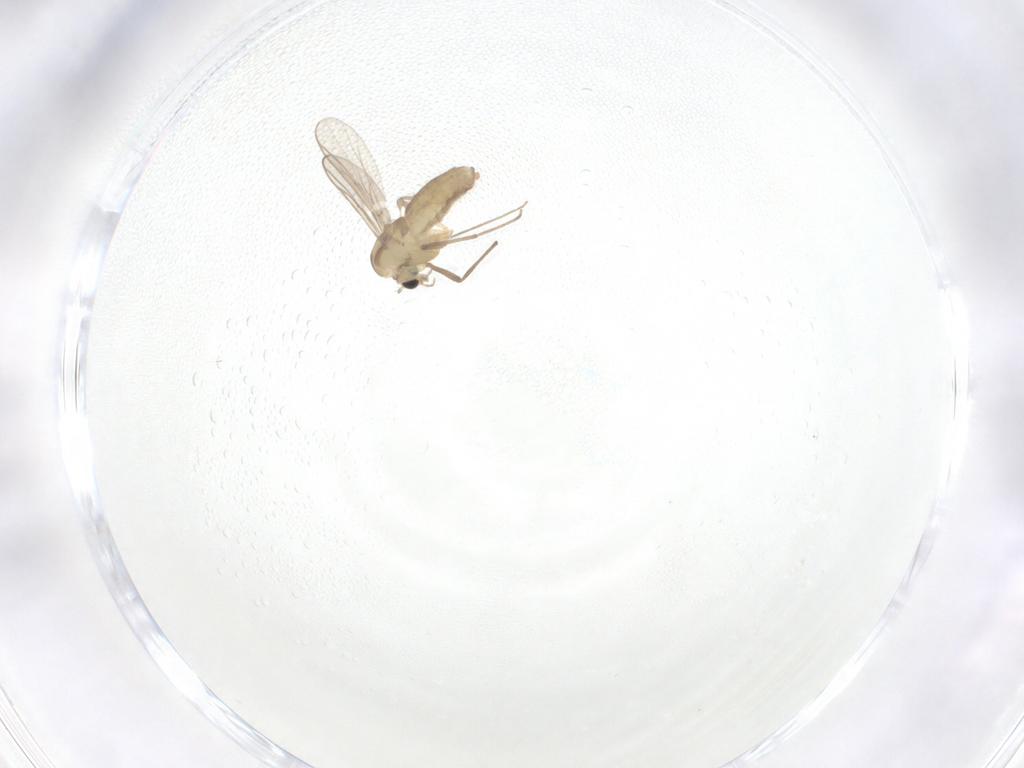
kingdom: Animalia
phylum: Arthropoda
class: Insecta
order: Diptera
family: Chironomidae
